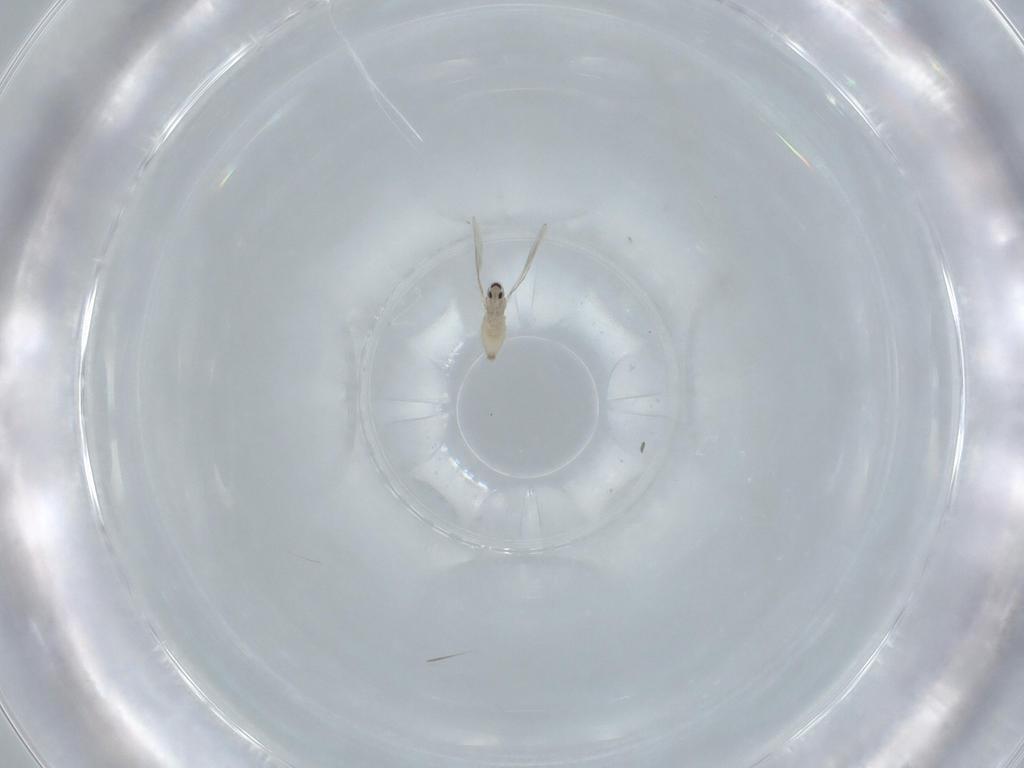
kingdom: Animalia
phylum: Arthropoda
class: Insecta
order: Diptera
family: Cecidomyiidae
